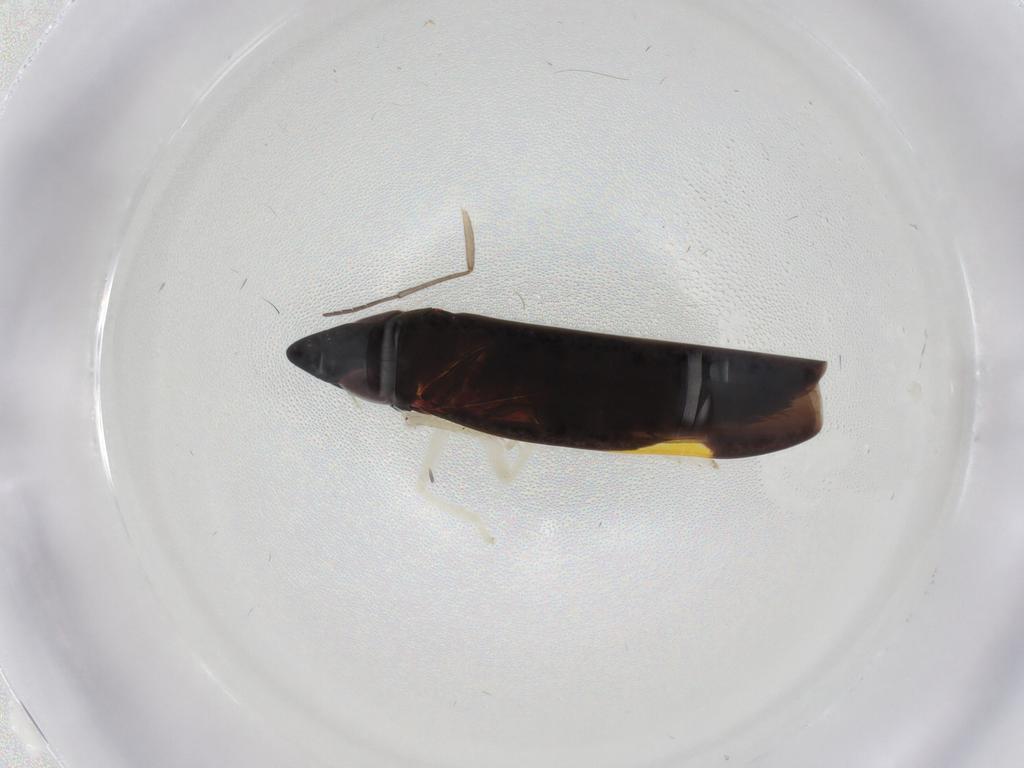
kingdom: Animalia
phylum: Arthropoda
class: Insecta
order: Hemiptera
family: Cicadellidae
